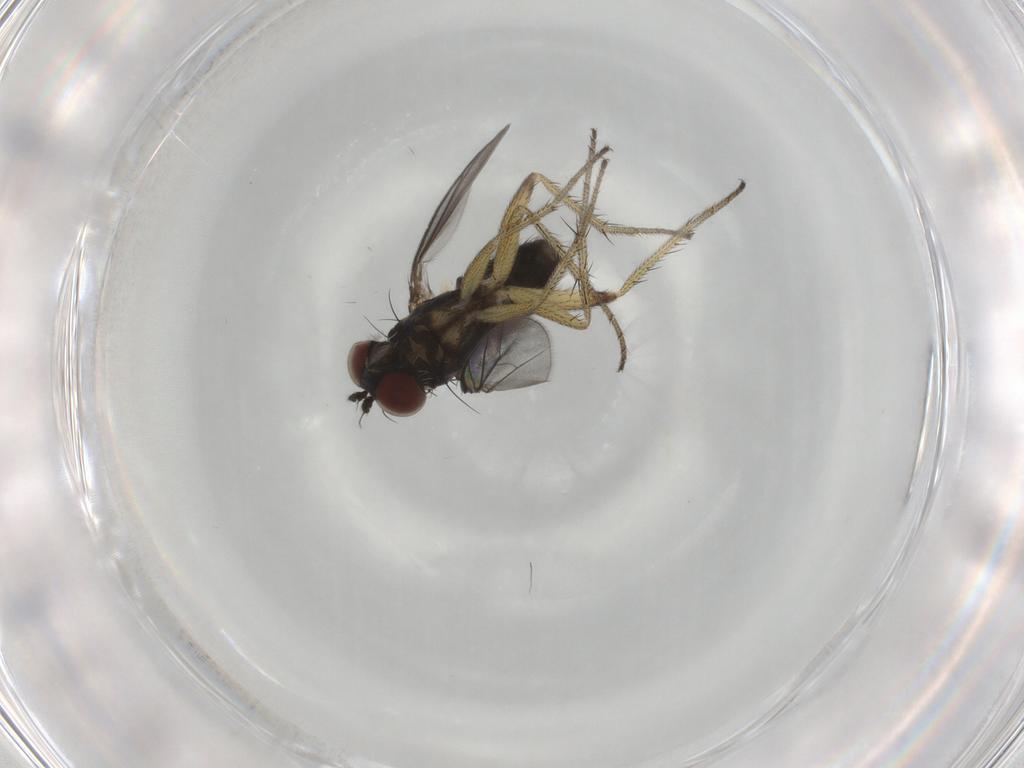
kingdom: Animalia
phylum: Arthropoda
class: Insecta
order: Diptera
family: Dolichopodidae
